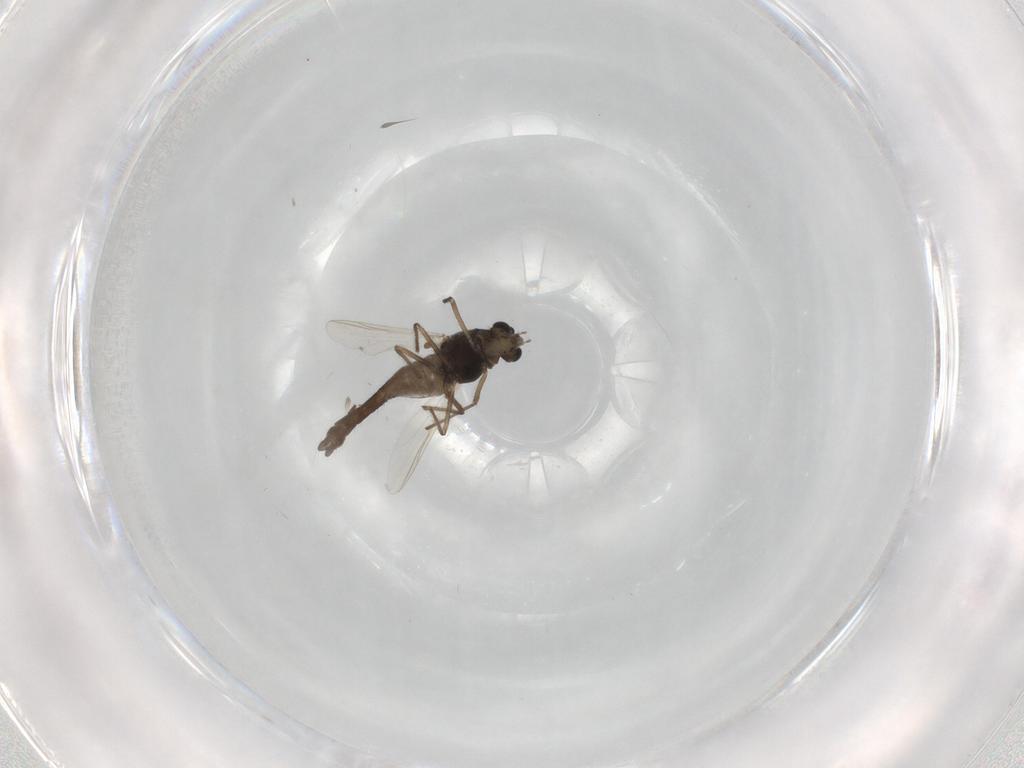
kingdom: Animalia
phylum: Arthropoda
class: Insecta
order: Diptera
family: Chironomidae
